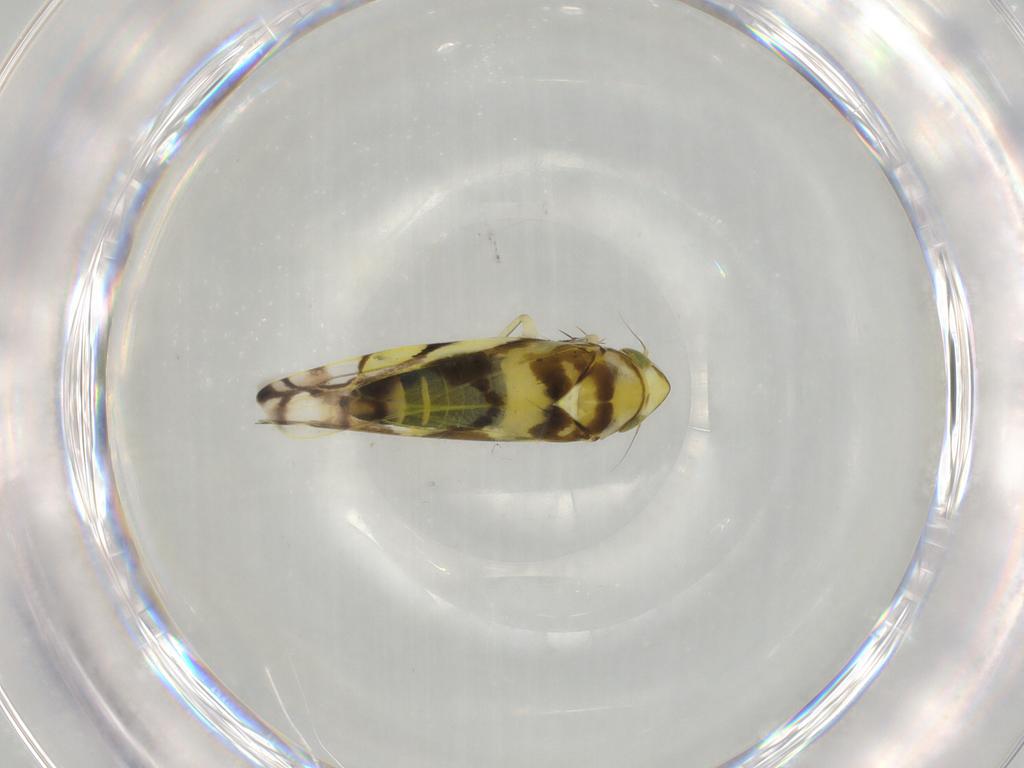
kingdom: Animalia
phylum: Arthropoda
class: Insecta
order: Hemiptera
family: Cicadellidae
